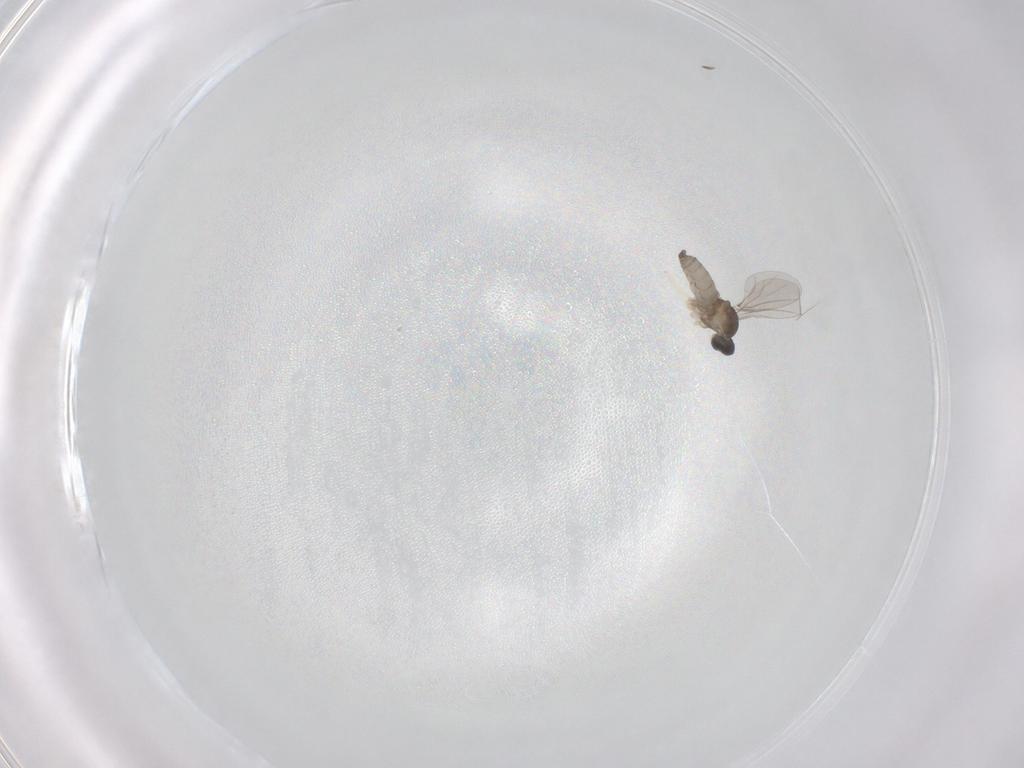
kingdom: Animalia
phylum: Arthropoda
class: Insecta
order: Diptera
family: Cecidomyiidae
